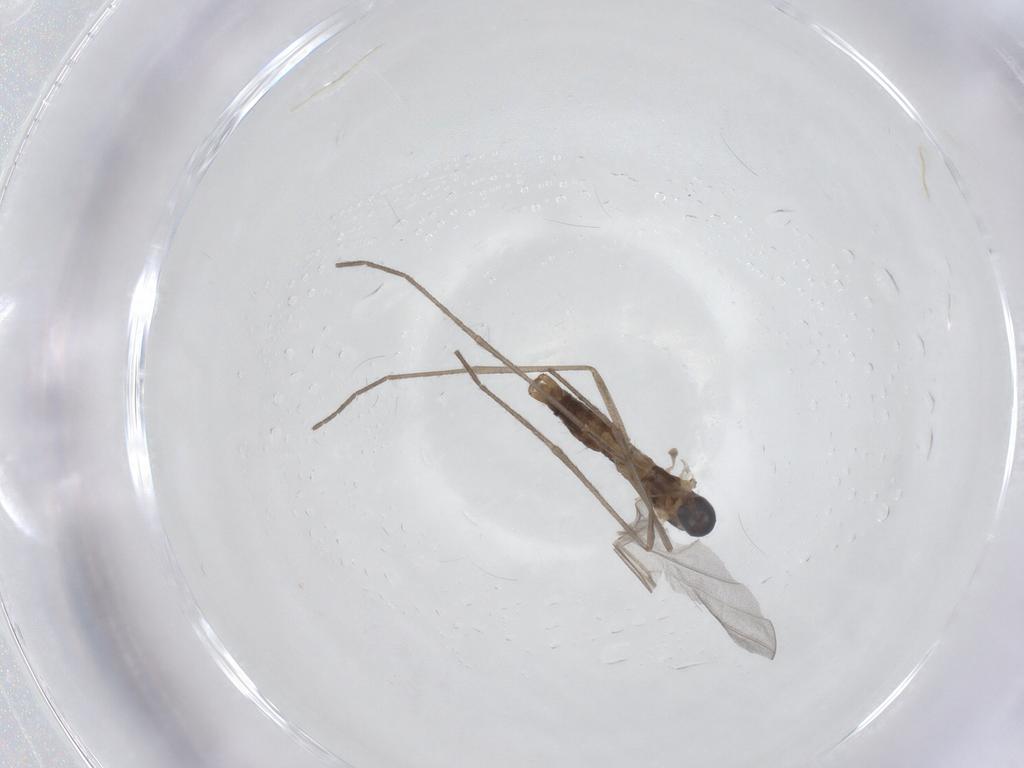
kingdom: Animalia
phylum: Arthropoda
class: Insecta
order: Diptera
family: Cecidomyiidae
